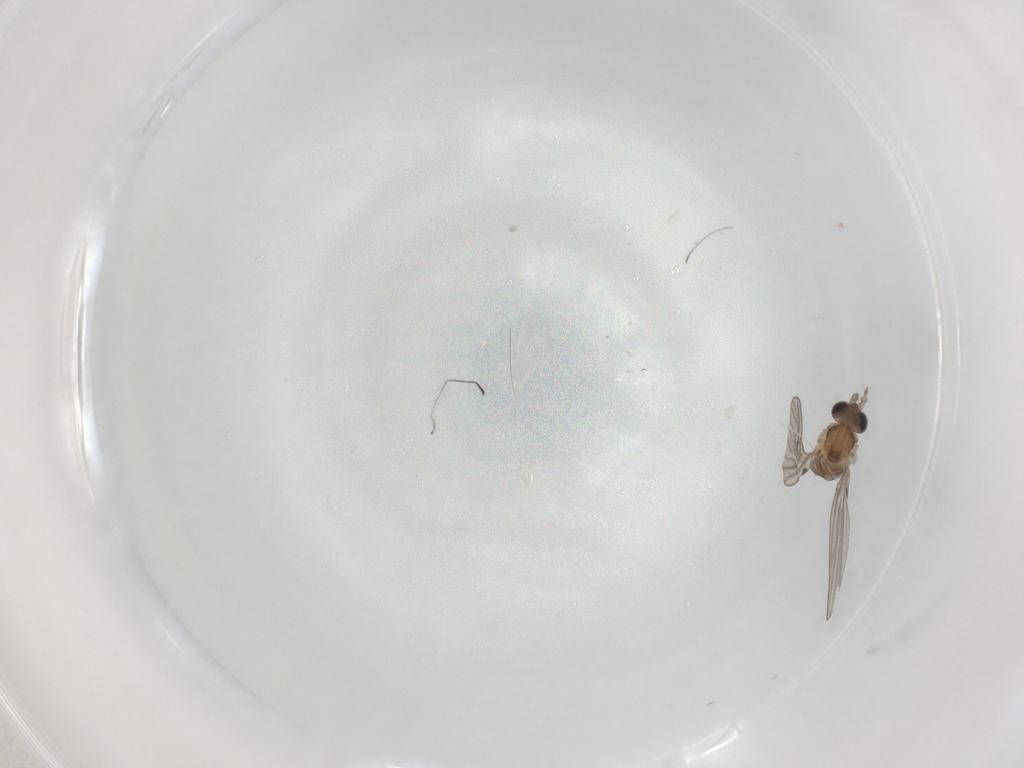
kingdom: Animalia
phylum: Arthropoda
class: Insecta
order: Diptera
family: Psychodidae
